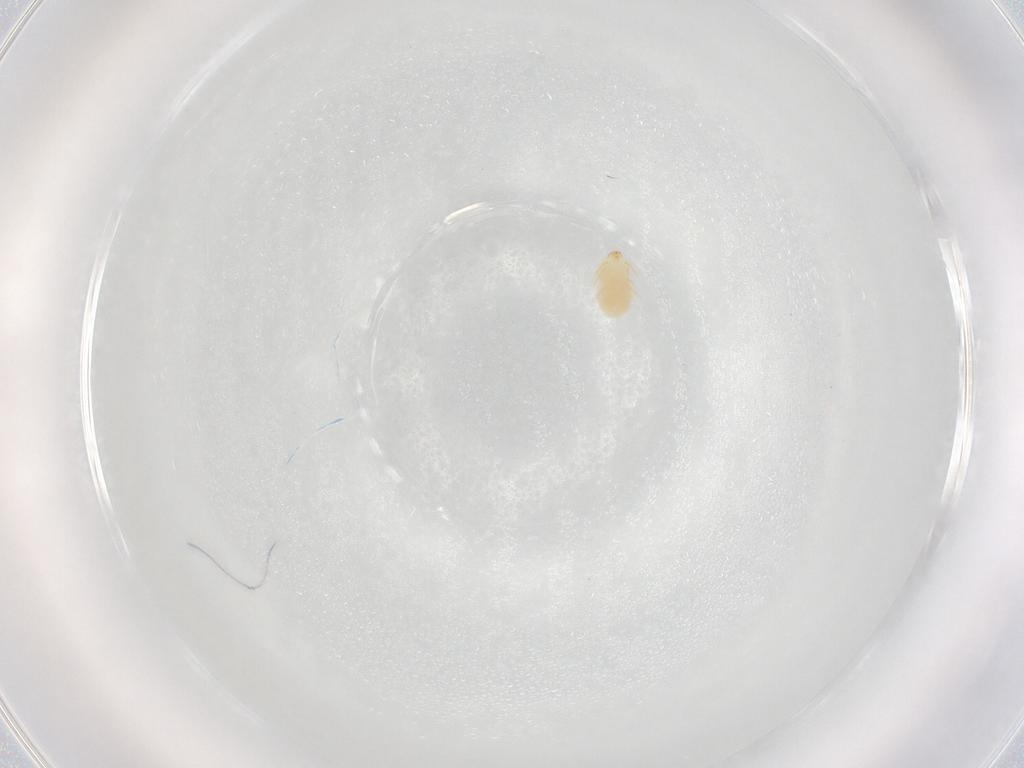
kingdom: Animalia
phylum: Arthropoda
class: Arachnida
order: Trombidiformes
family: Microtrombidiidae
